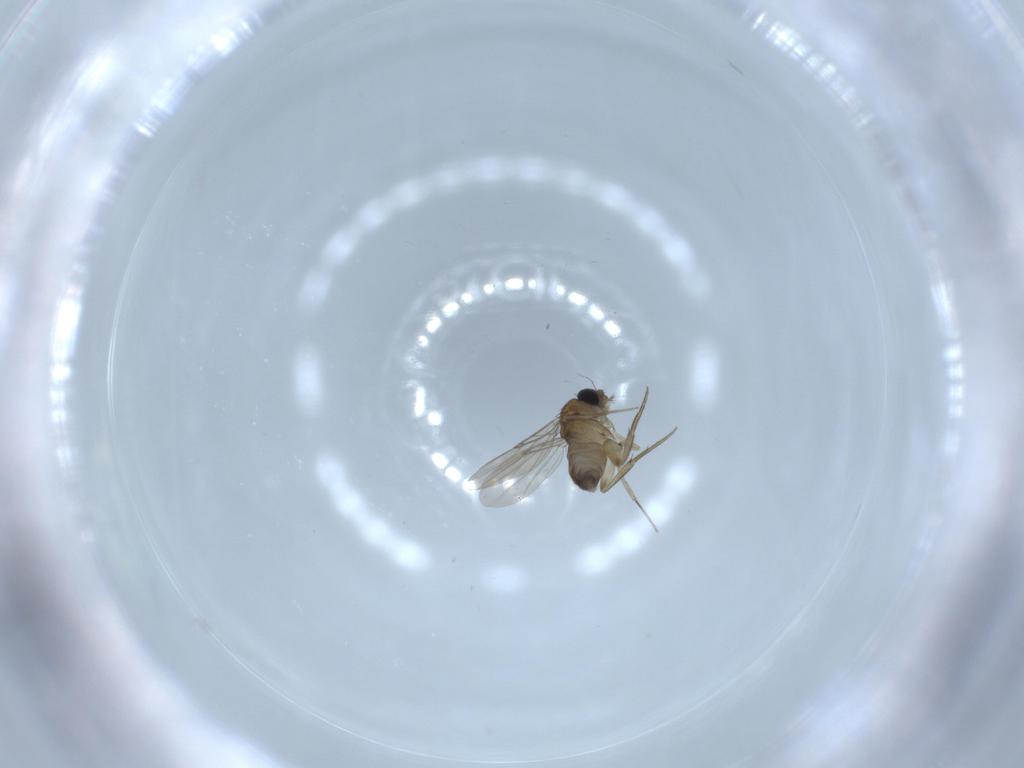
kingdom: Animalia
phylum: Arthropoda
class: Insecta
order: Diptera
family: Phoridae
